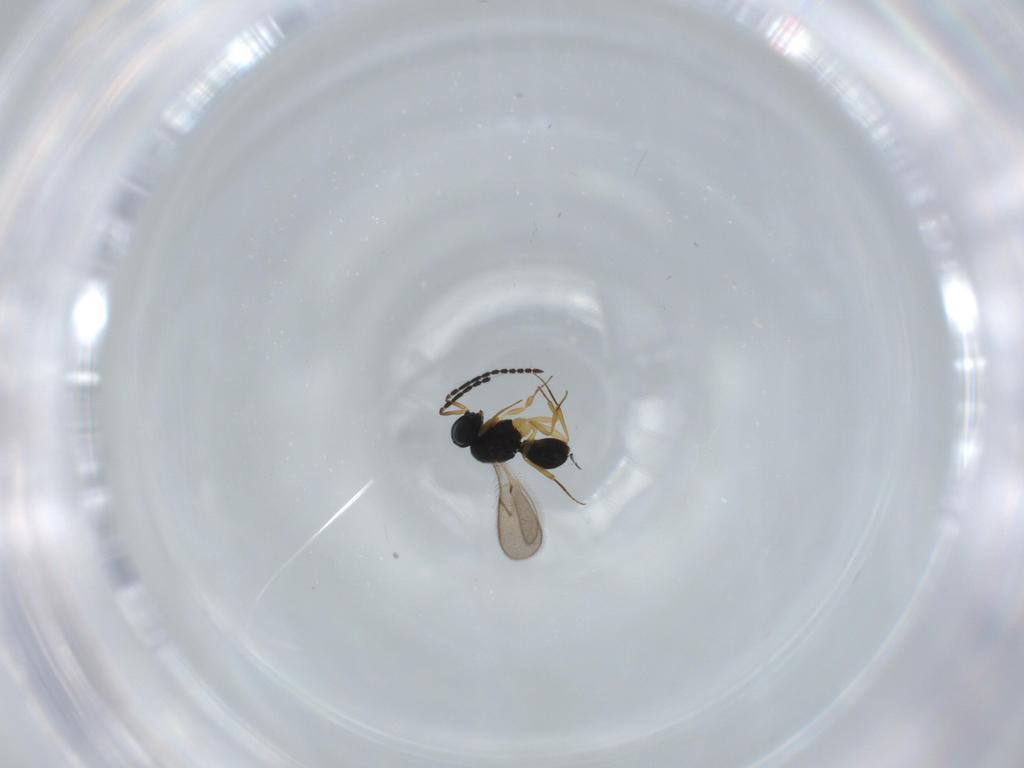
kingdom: Animalia
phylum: Arthropoda
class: Insecta
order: Hymenoptera
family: Scelionidae
